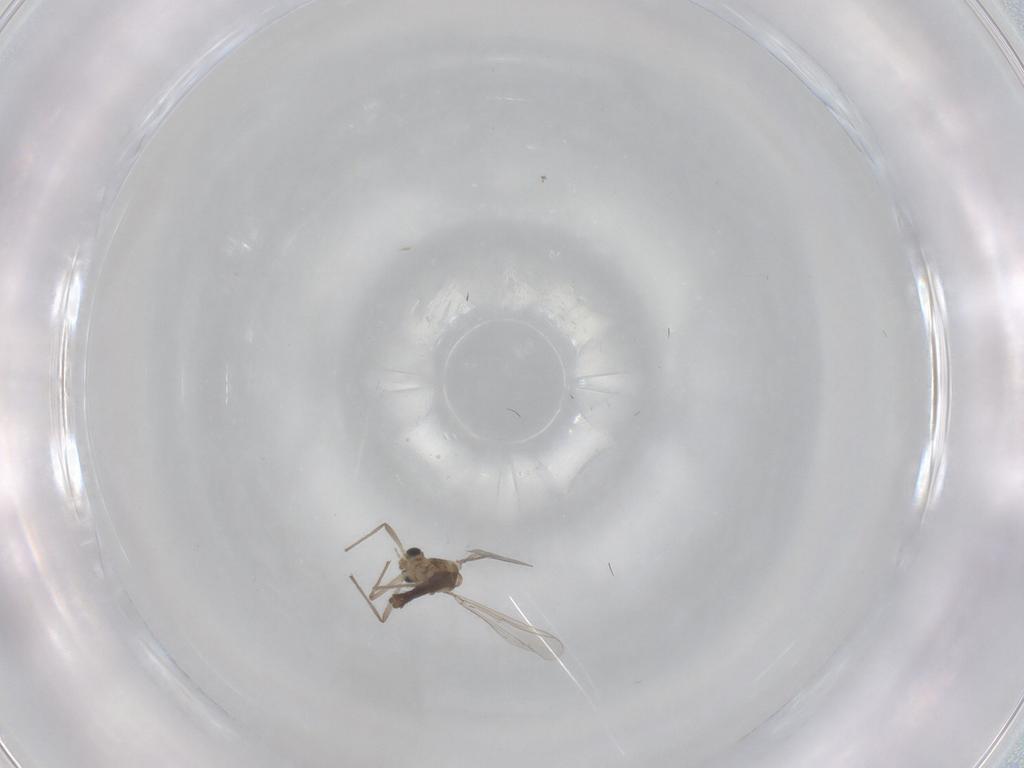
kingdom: Animalia
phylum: Arthropoda
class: Insecta
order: Diptera
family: Chironomidae
